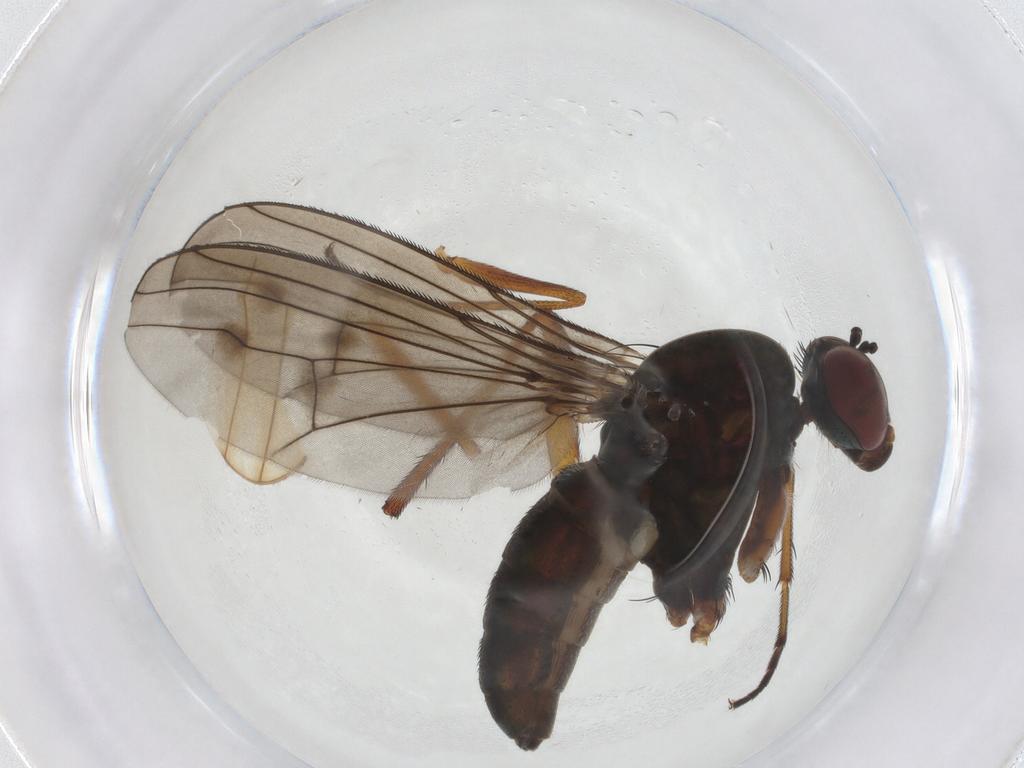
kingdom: Animalia
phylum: Arthropoda
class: Insecta
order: Diptera
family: Dolichopodidae
